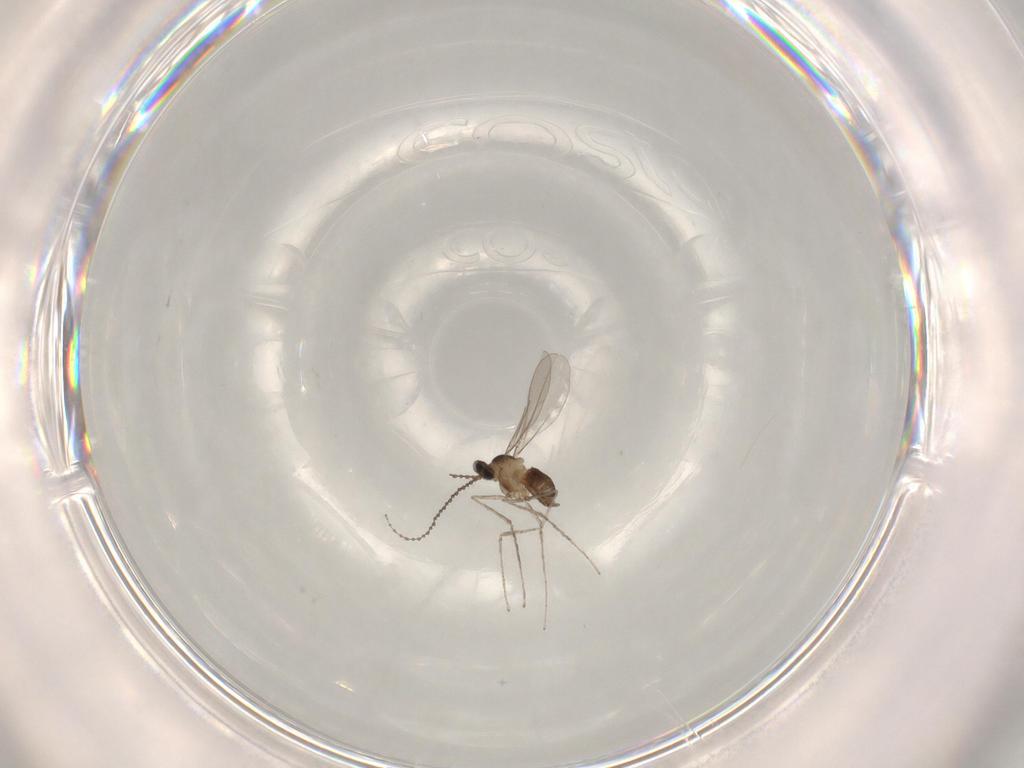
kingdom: Animalia
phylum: Arthropoda
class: Insecta
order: Diptera
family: Cecidomyiidae
